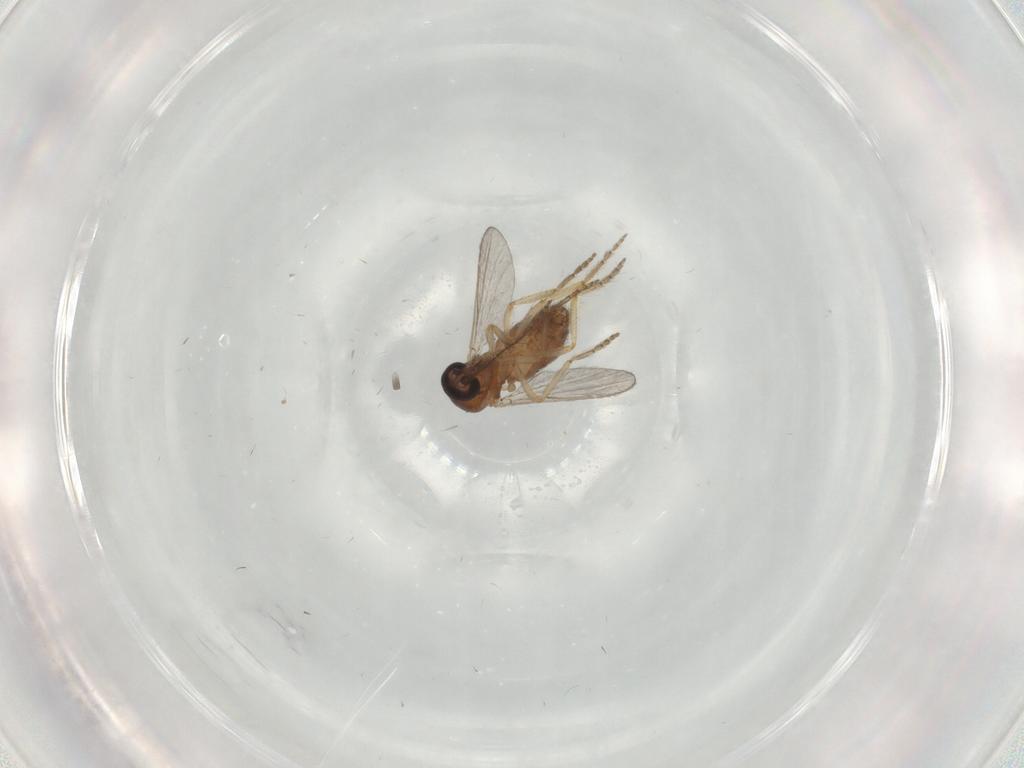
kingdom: Animalia
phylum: Arthropoda
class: Insecta
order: Diptera
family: Ceratopogonidae
